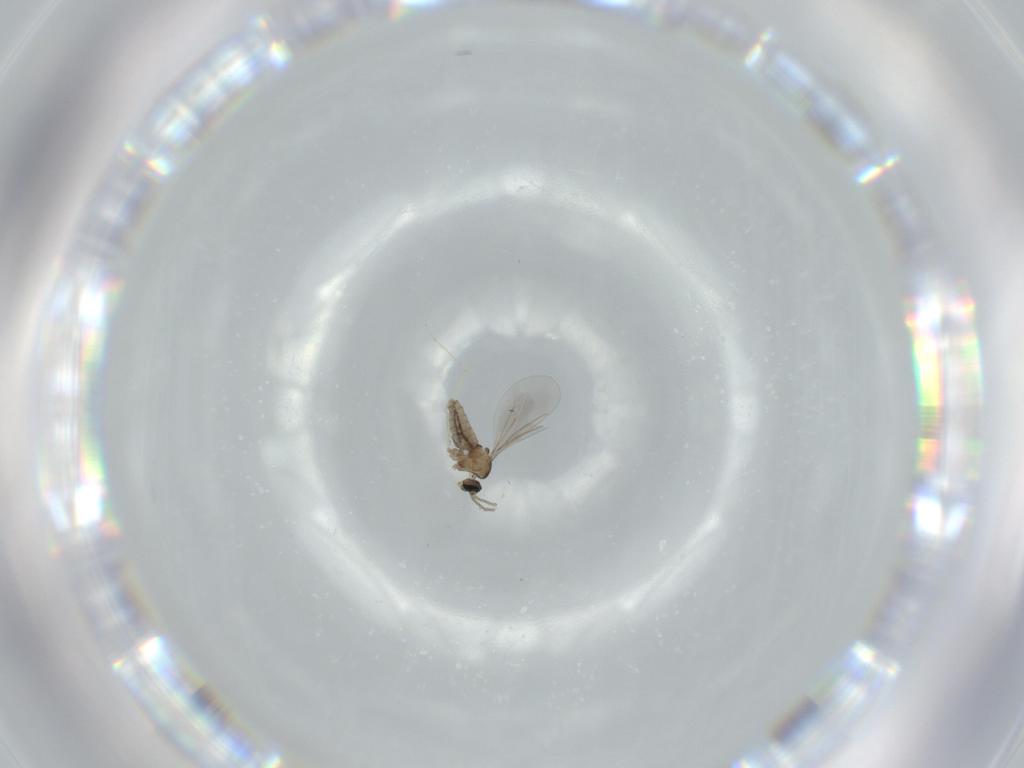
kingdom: Animalia
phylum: Arthropoda
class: Insecta
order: Diptera
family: Cecidomyiidae
